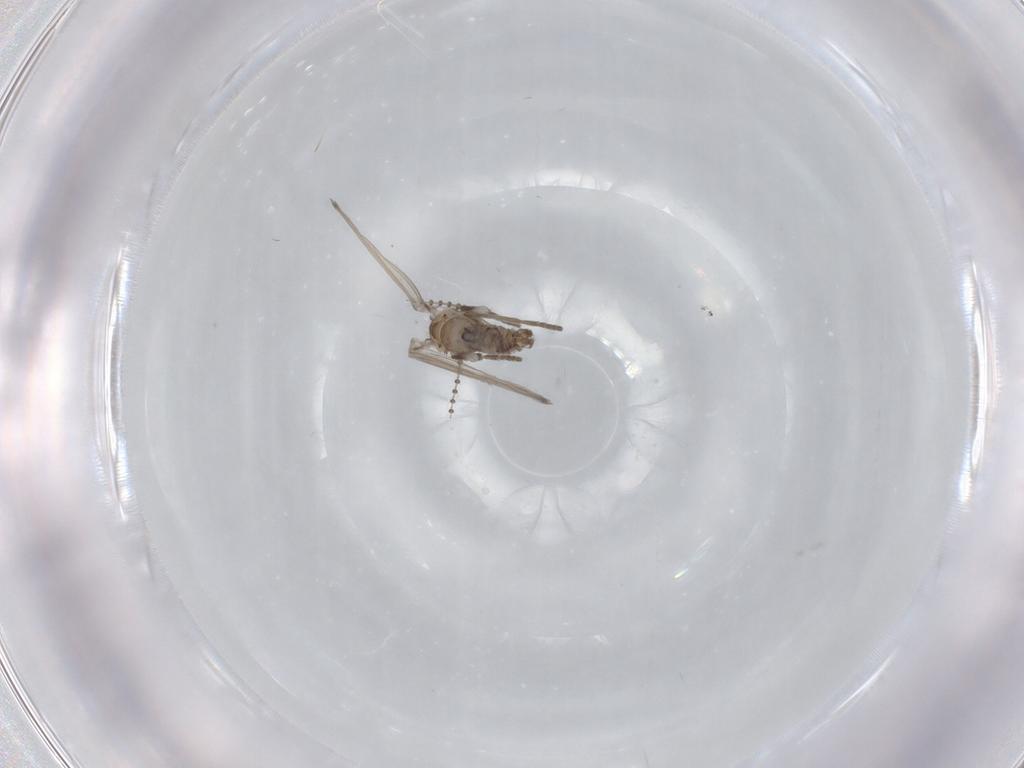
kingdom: Animalia
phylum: Arthropoda
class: Insecta
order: Diptera
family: Psychodidae
